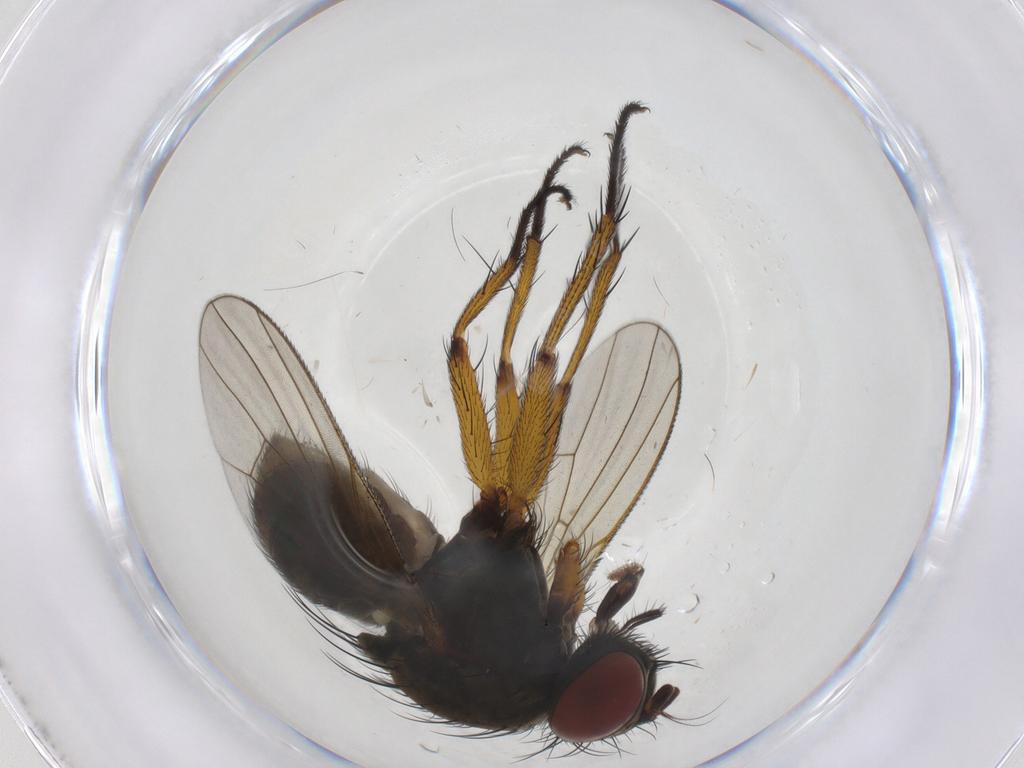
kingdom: Animalia
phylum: Arthropoda
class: Insecta
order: Diptera
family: Muscidae
